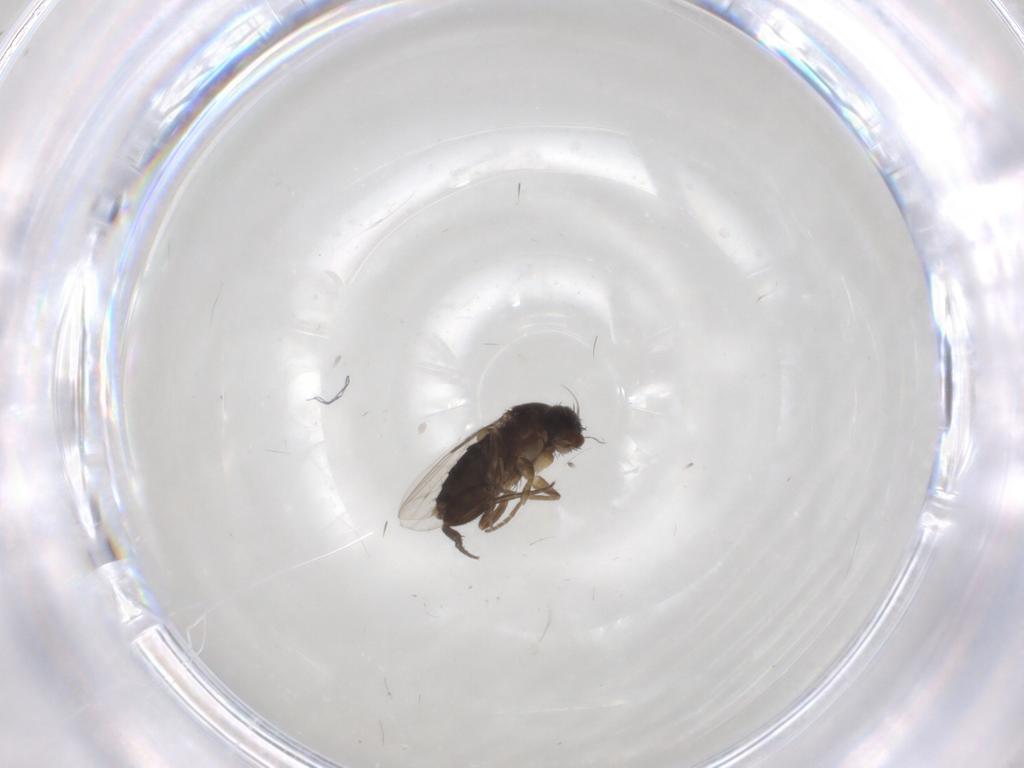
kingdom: Animalia
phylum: Arthropoda
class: Insecta
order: Diptera
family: Phoridae
